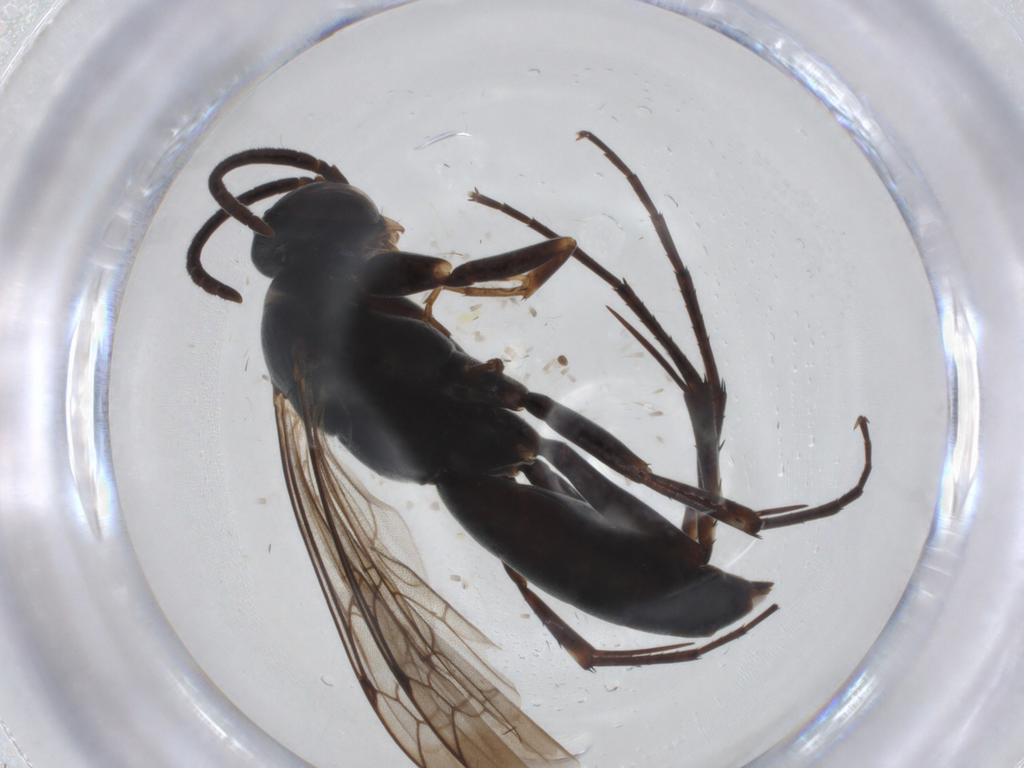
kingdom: Animalia
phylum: Arthropoda
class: Insecta
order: Hymenoptera
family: Pompilidae
